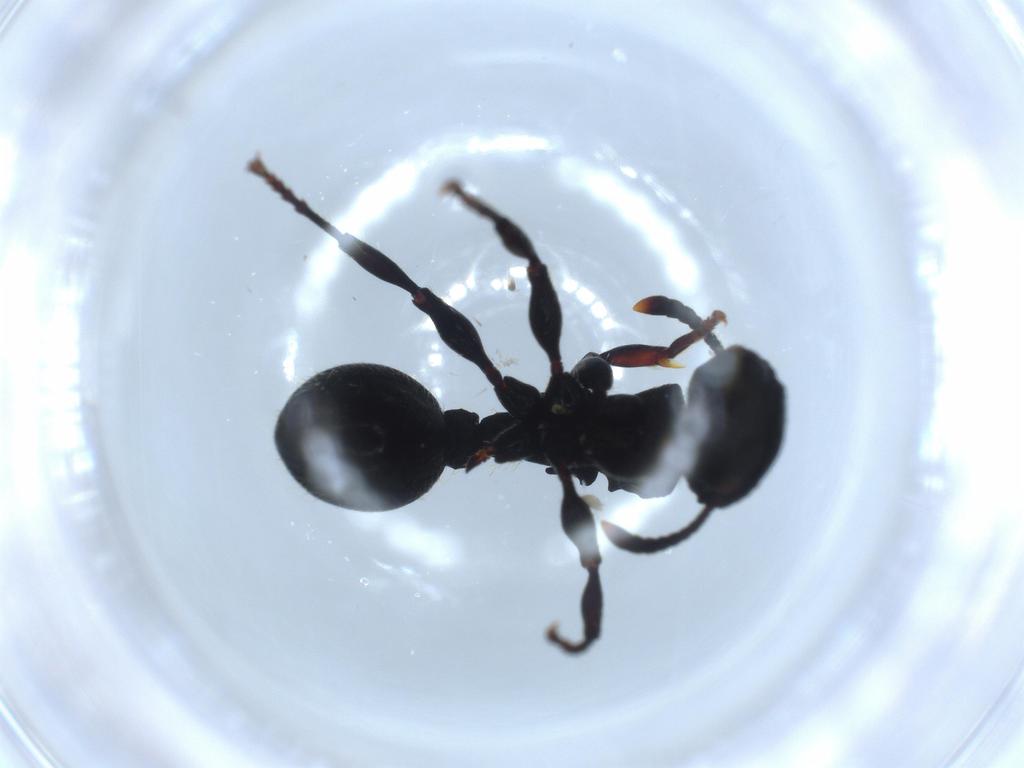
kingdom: Animalia
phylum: Arthropoda
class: Insecta
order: Hymenoptera
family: Formicidae
